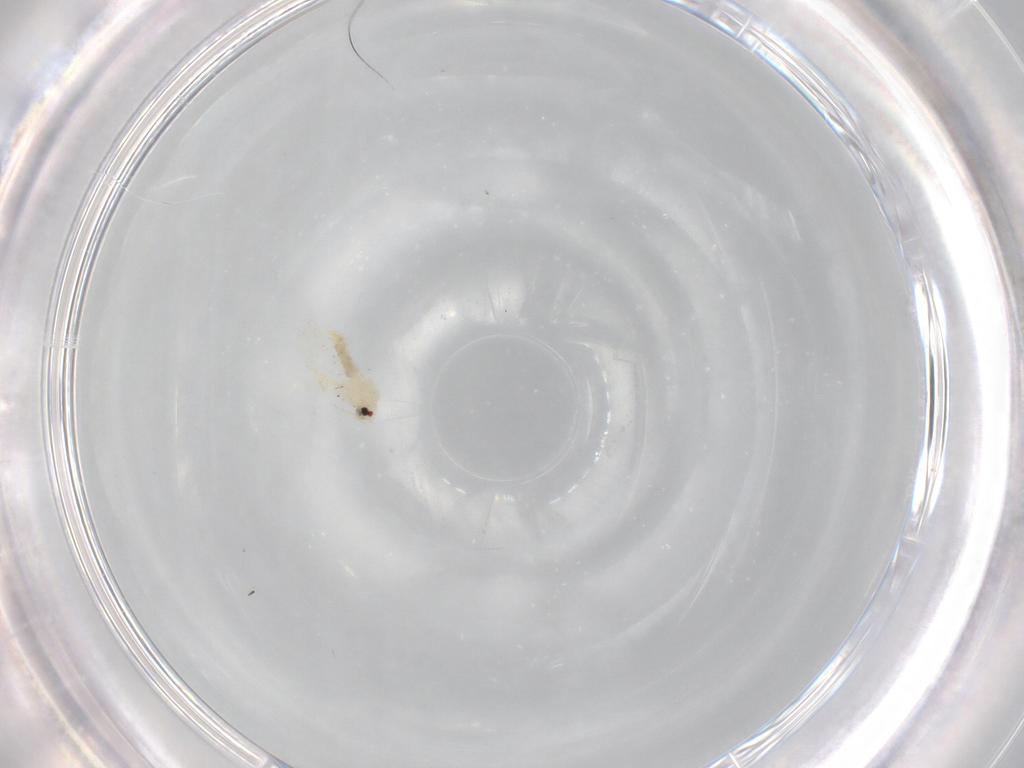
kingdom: Animalia
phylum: Arthropoda
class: Insecta
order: Hemiptera
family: Aleyrodidae
